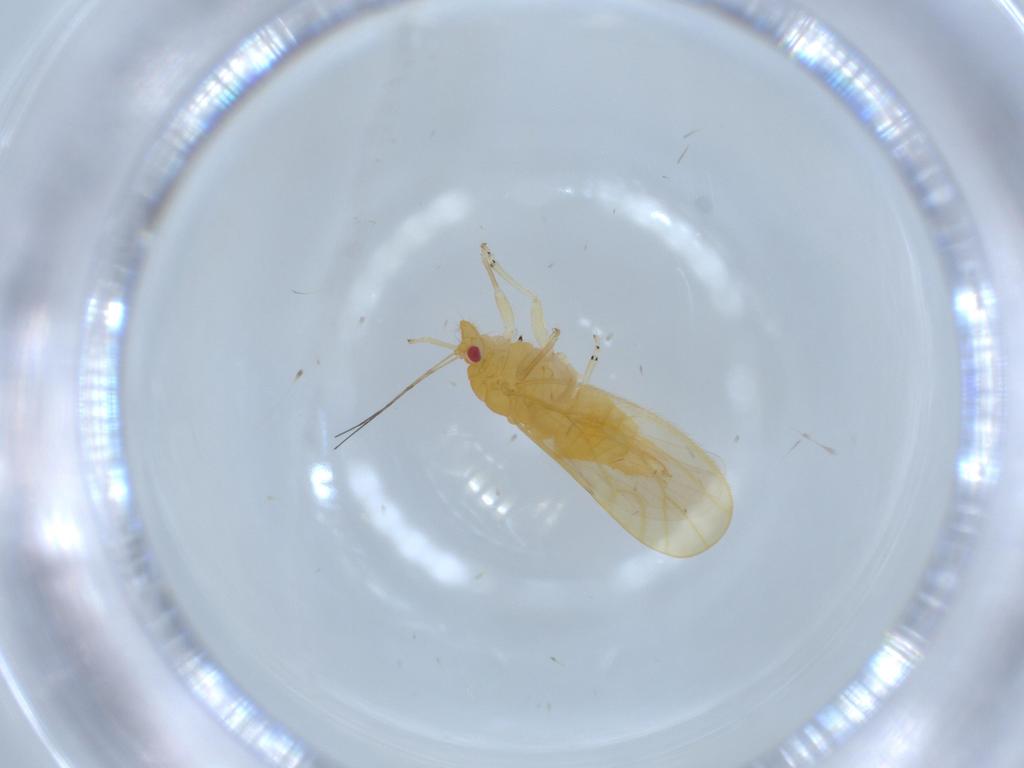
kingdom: Animalia
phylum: Arthropoda
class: Insecta
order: Hemiptera
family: Psyllidae
